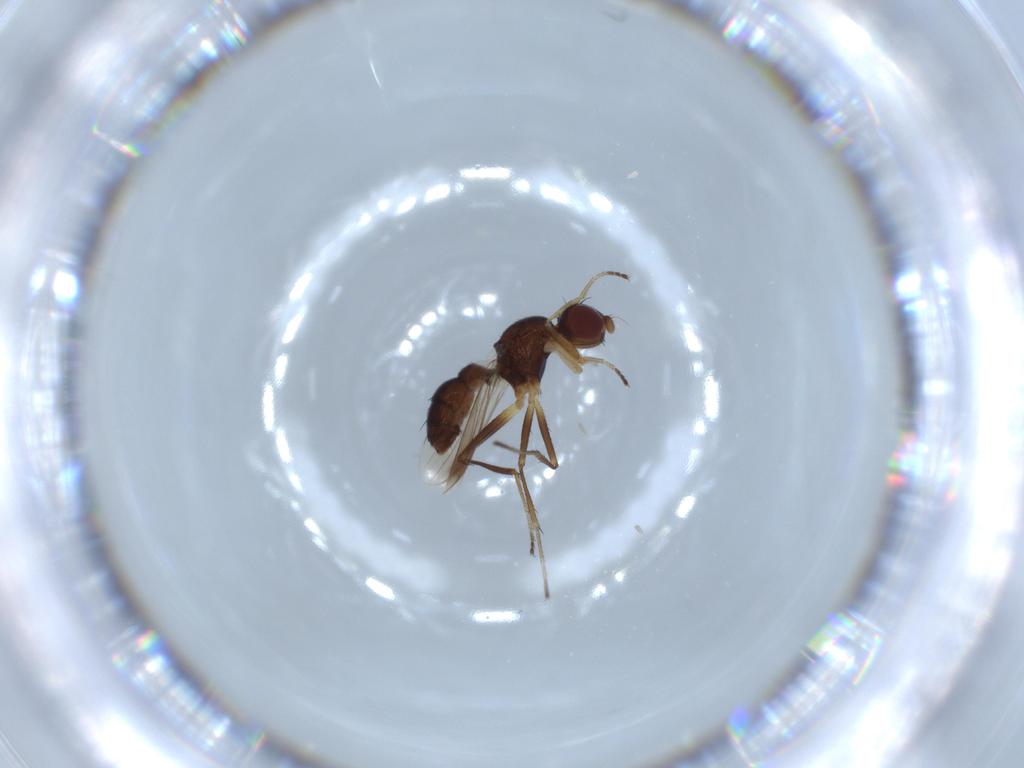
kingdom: Animalia
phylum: Arthropoda
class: Insecta
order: Diptera
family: Sepsidae
